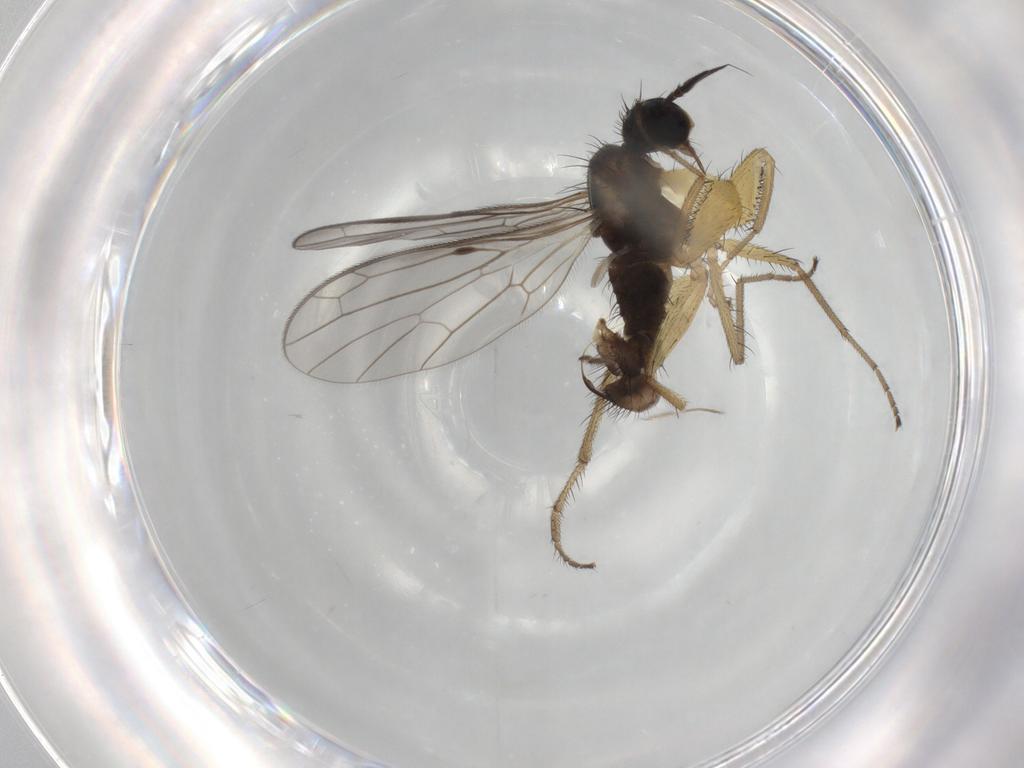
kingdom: Animalia
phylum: Arthropoda
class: Insecta
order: Diptera
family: Chironomidae
